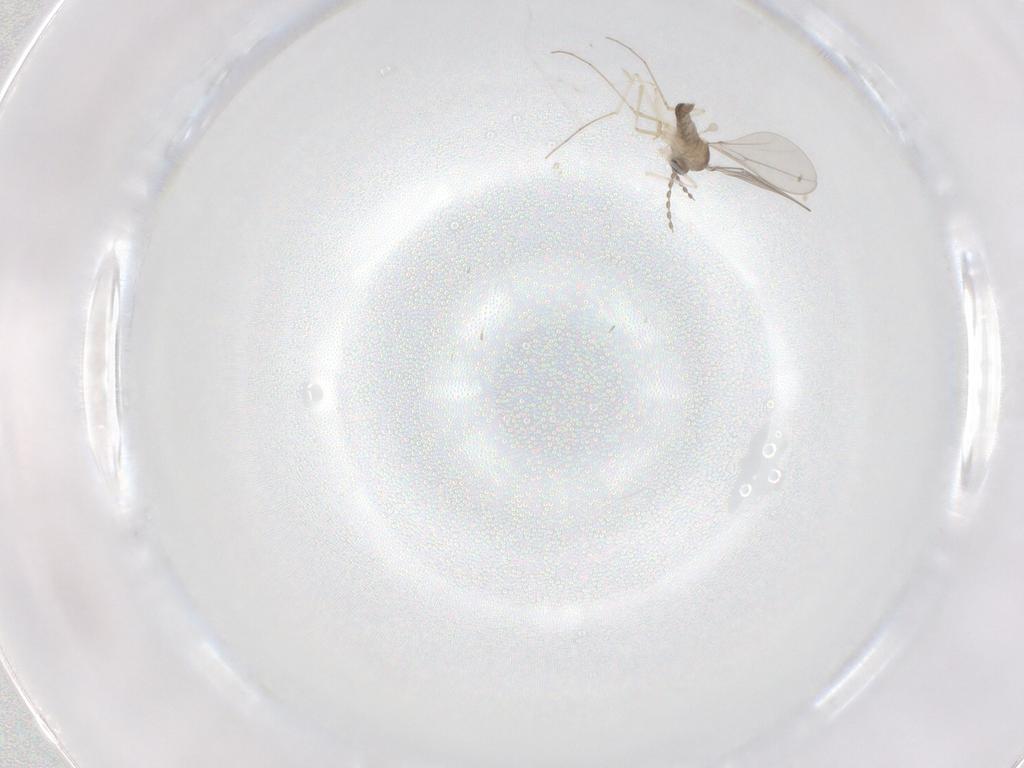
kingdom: Animalia
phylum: Arthropoda
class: Insecta
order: Diptera
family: Cecidomyiidae
